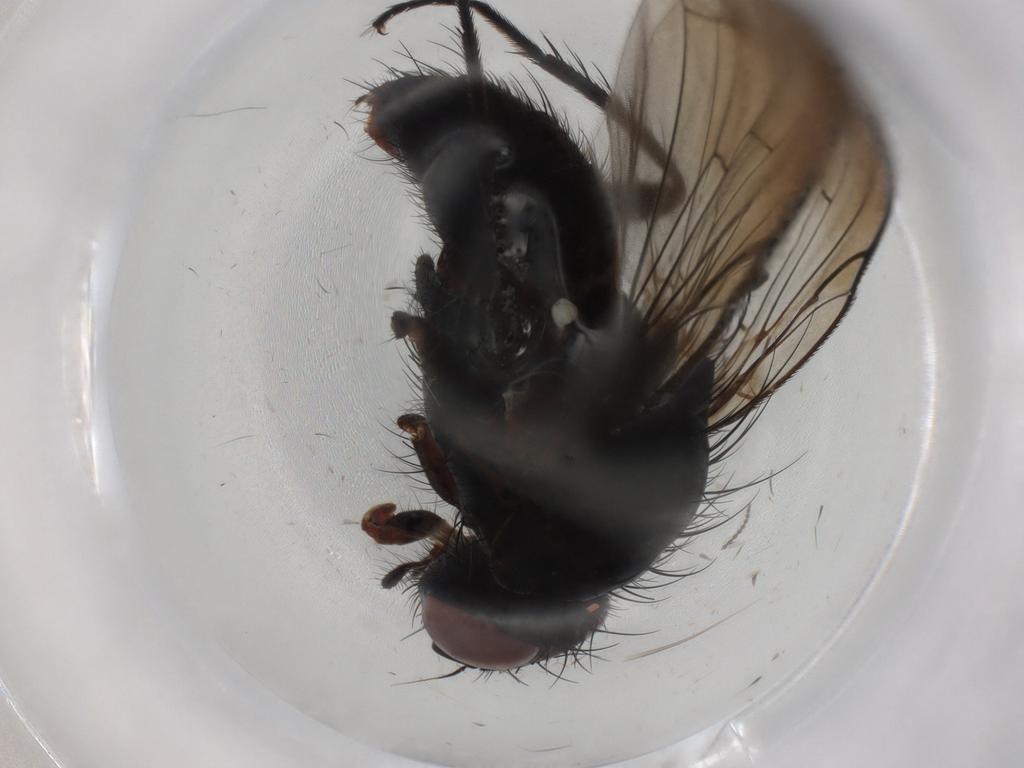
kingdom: Animalia
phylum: Arthropoda
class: Insecta
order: Diptera
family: Anthomyiidae
